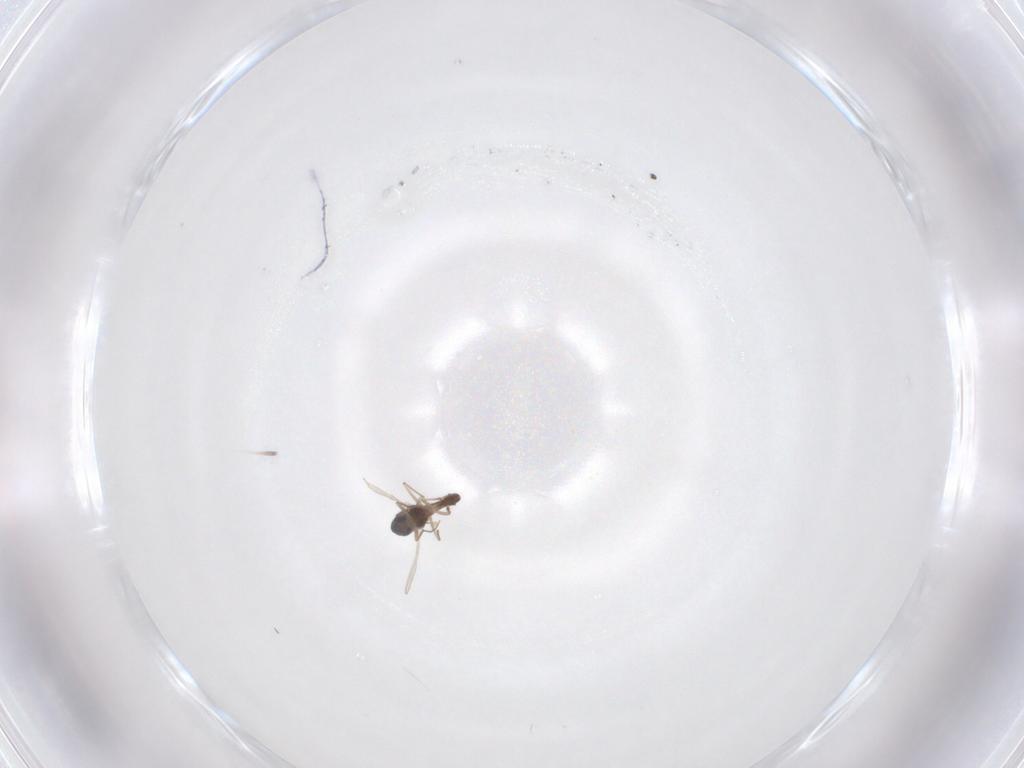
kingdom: Animalia
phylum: Arthropoda
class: Insecta
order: Diptera
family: Chironomidae
